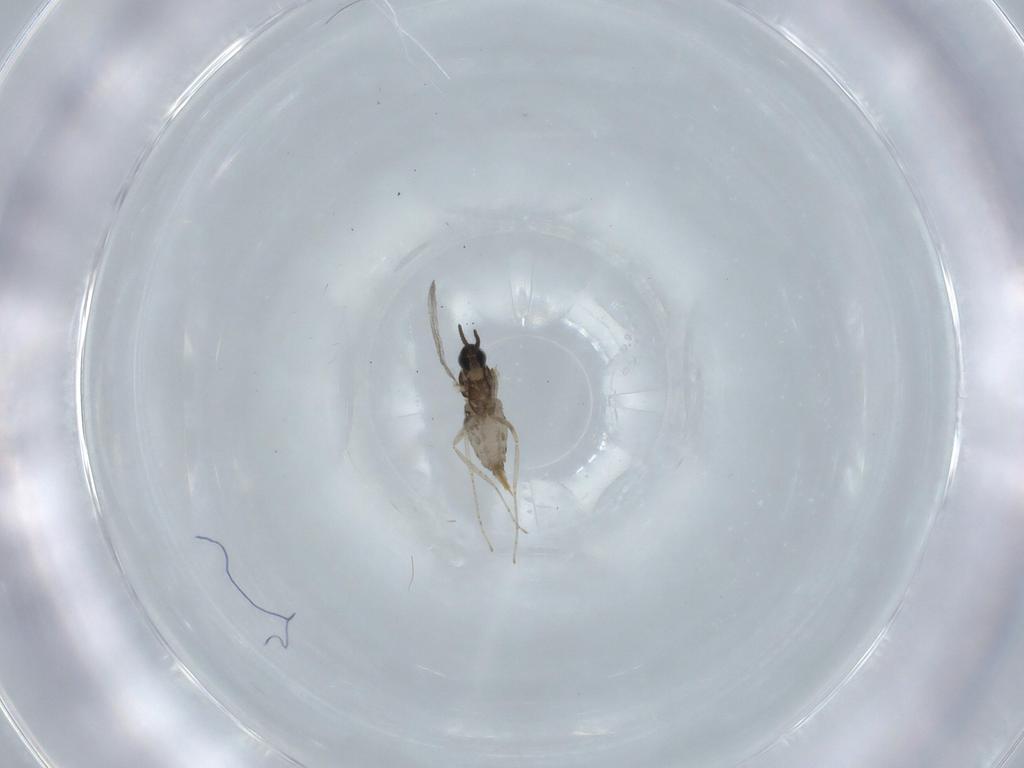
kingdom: Animalia
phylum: Arthropoda
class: Insecta
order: Diptera
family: Cecidomyiidae
